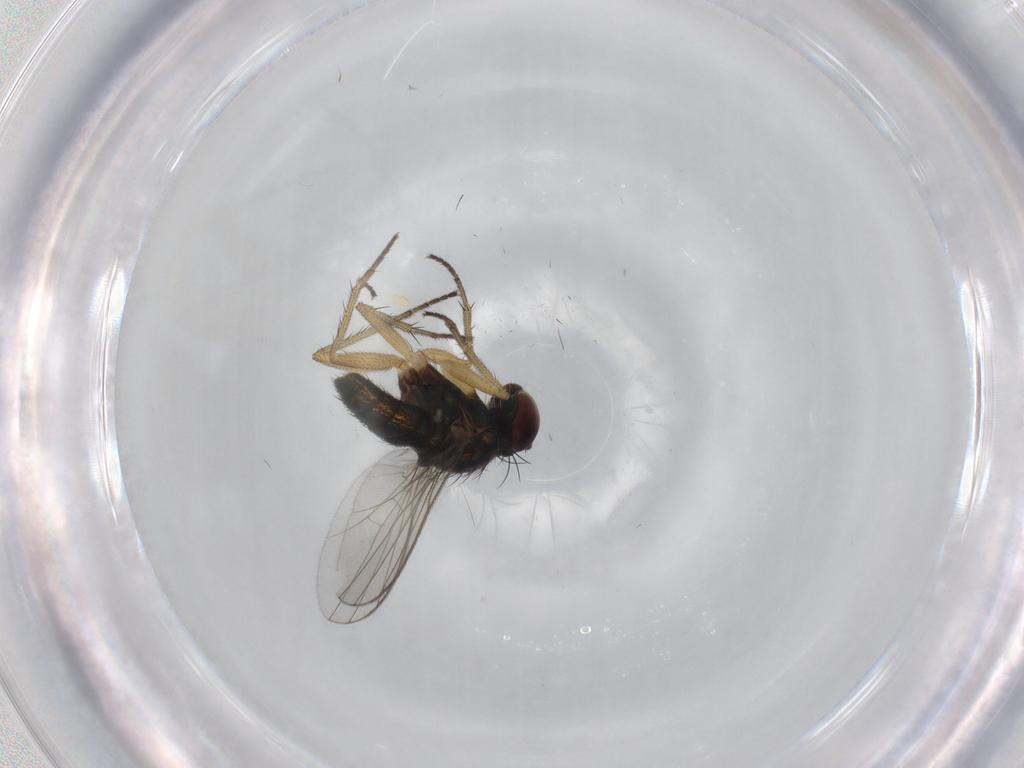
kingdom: Animalia
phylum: Arthropoda
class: Insecta
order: Diptera
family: Dolichopodidae
